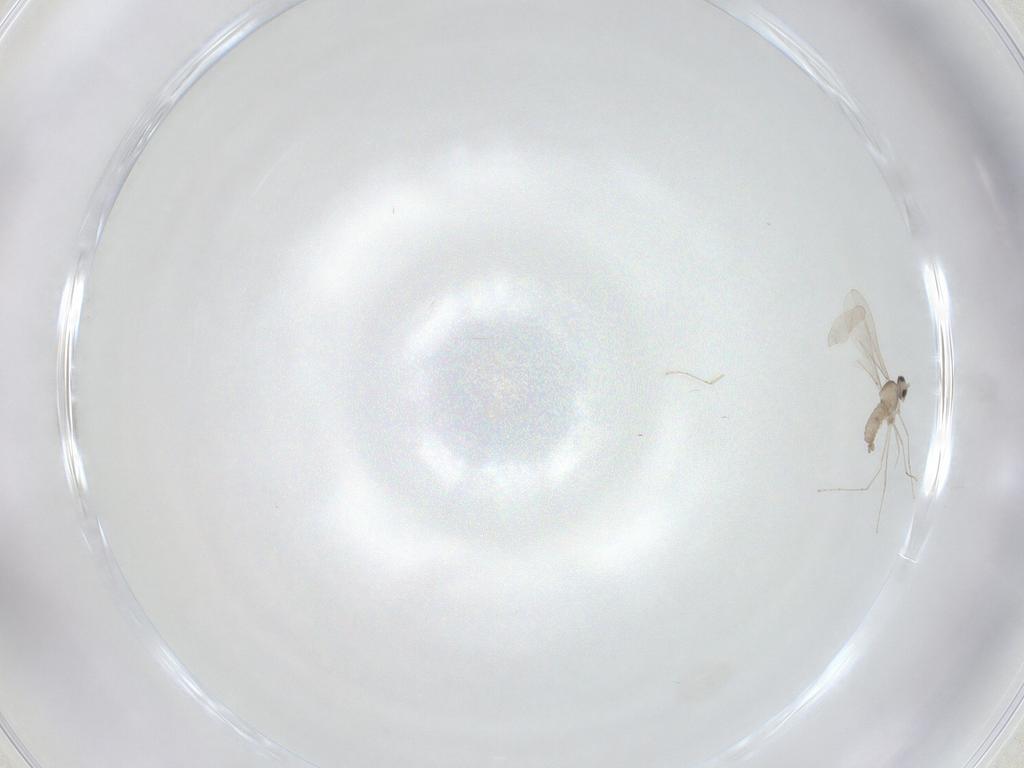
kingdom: Animalia
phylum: Arthropoda
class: Insecta
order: Diptera
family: Cecidomyiidae
